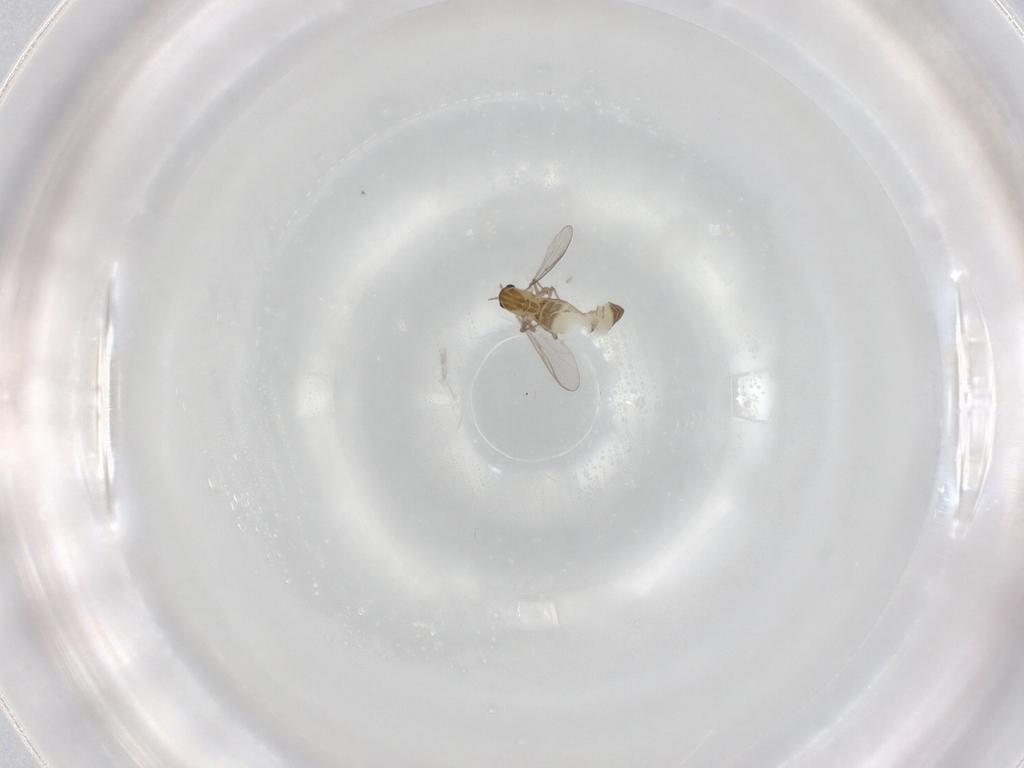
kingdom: Animalia
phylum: Arthropoda
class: Insecta
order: Diptera
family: Chironomidae
